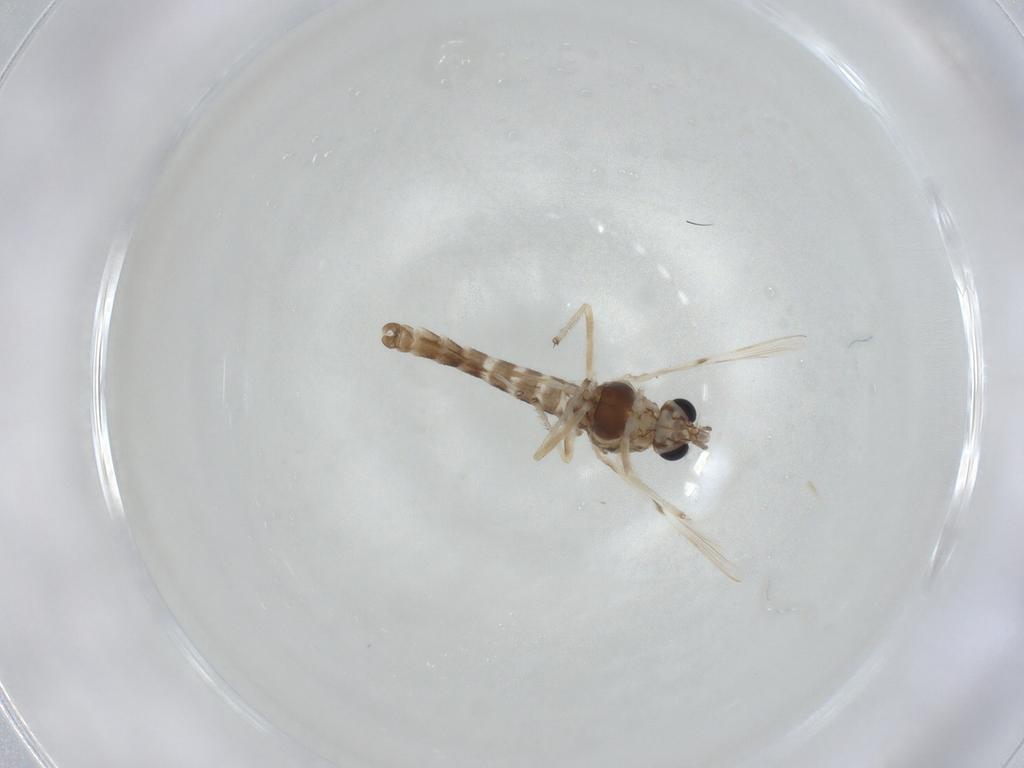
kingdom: Animalia
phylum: Arthropoda
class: Insecta
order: Diptera
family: Chironomidae
